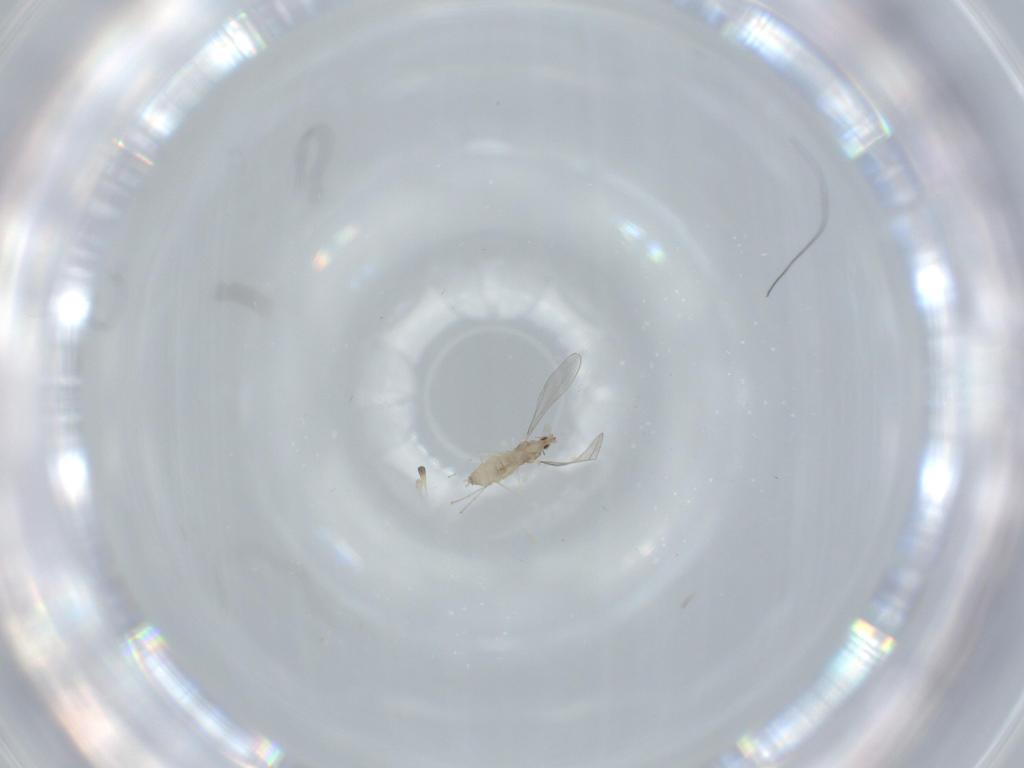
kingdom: Animalia
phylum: Arthropoda
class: Insecta
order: Diptera
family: Cecidomyiidae
